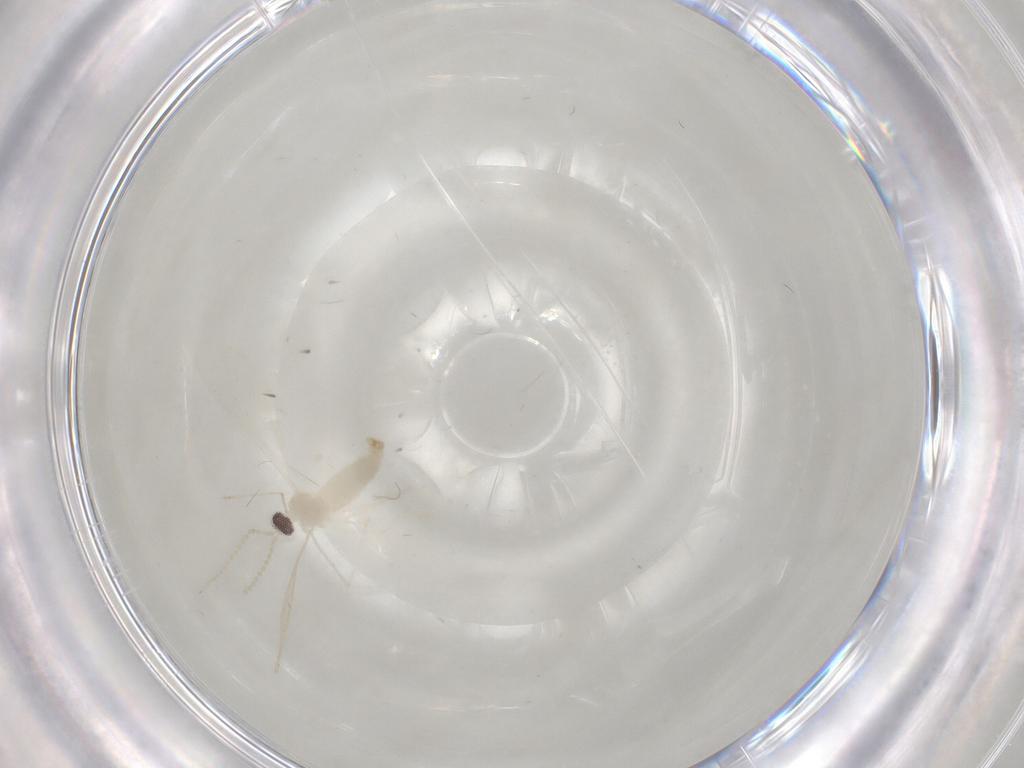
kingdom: Animalia
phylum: Arthropoda
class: Insecta
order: Diptera
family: Cecidomyiidae
